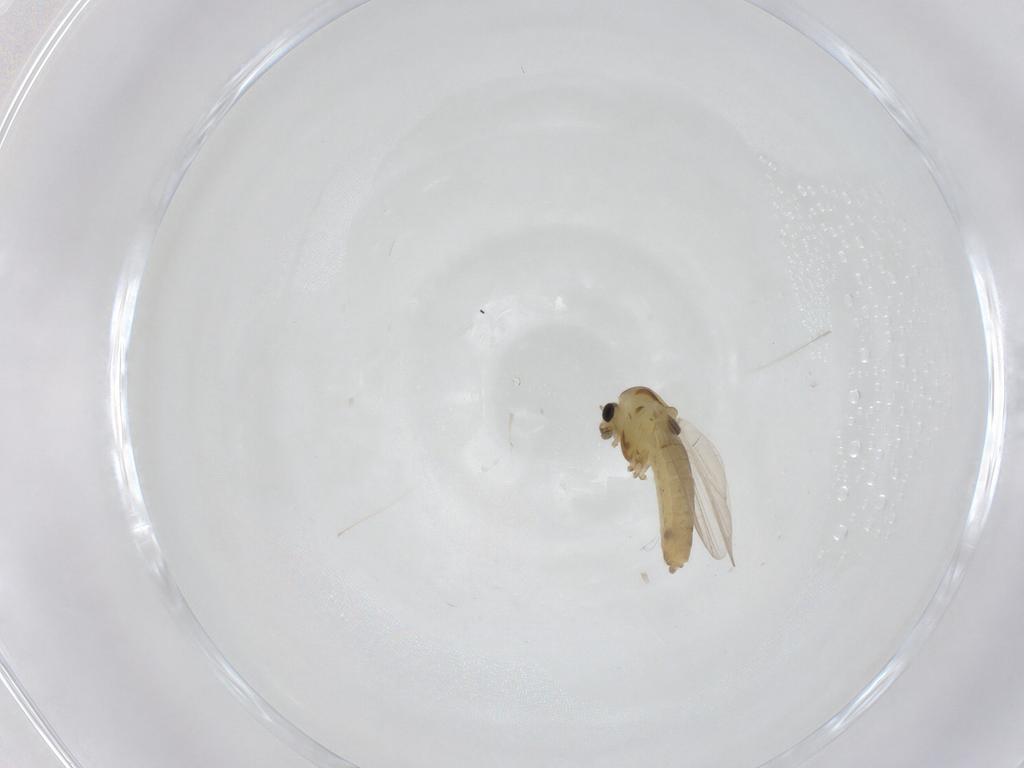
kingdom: Animalia
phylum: Arthropoda
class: Insecta
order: Diptera
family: Chironomidae
